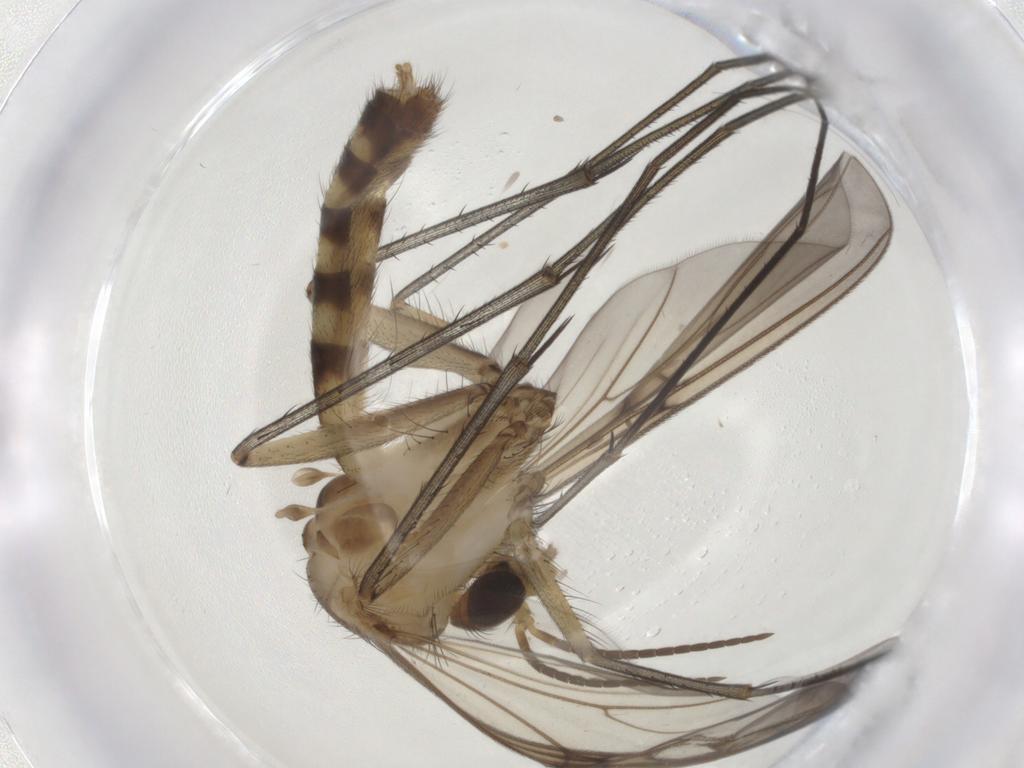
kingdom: Animalia
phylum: Arthropoda
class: Insecta
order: Diptera
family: Mycetophilidae
